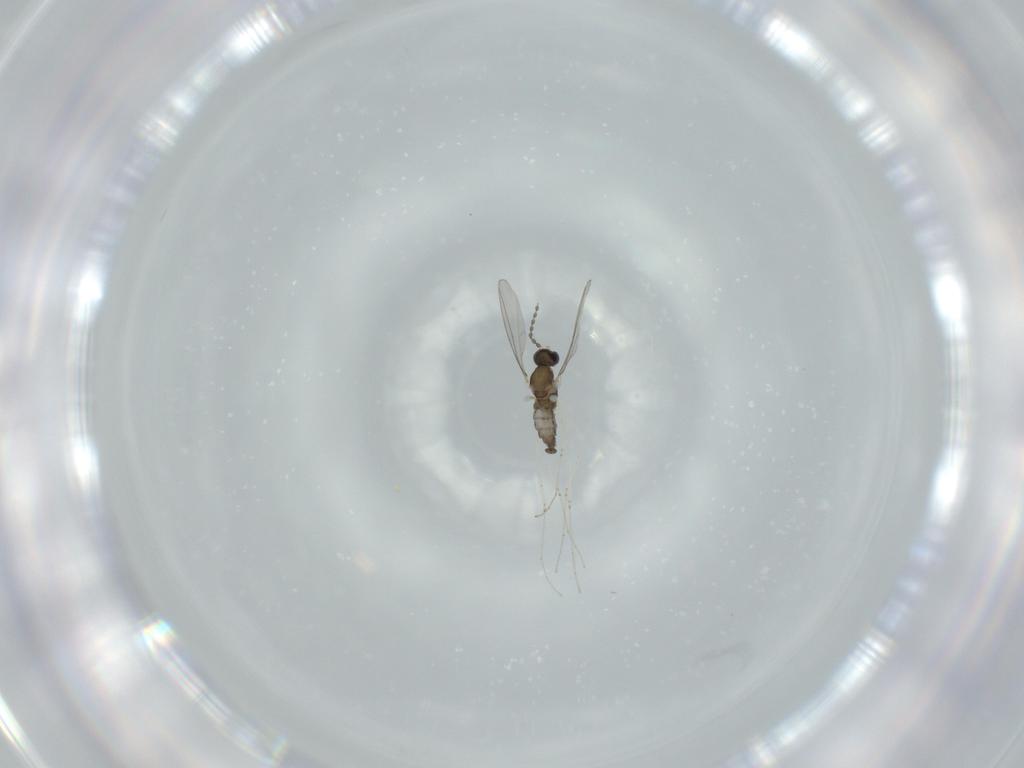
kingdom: Animalia
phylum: Arthropoda
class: Insecta
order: Diptera
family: Cecidomyiidae
